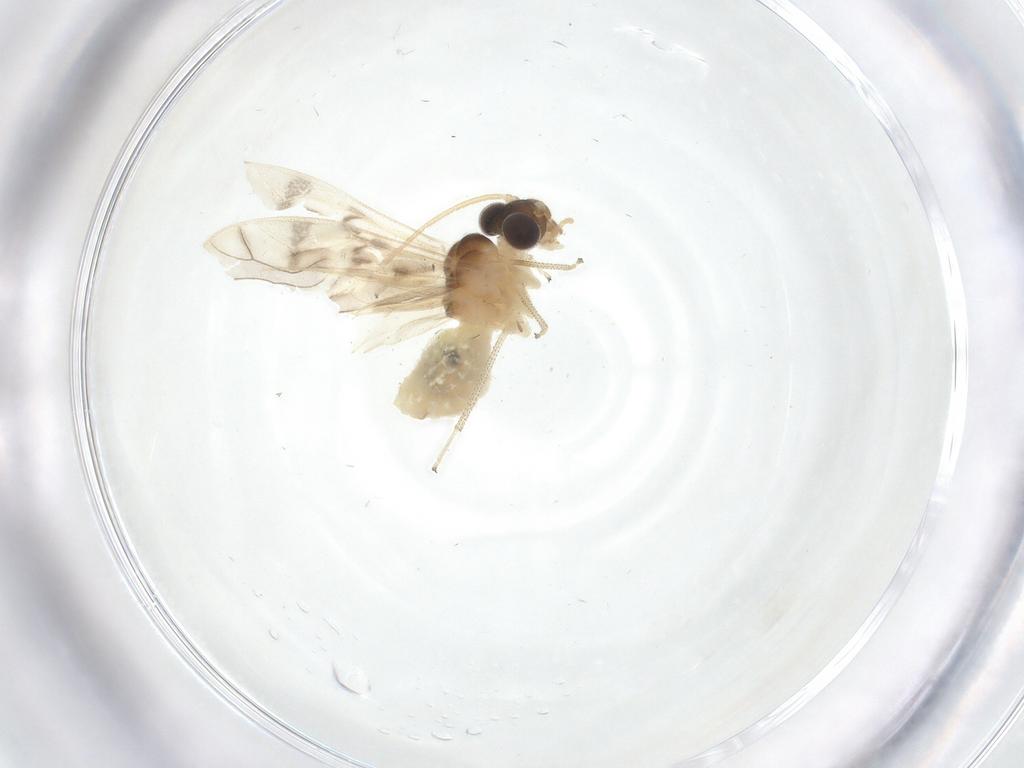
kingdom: Animalia
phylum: Arthropoda
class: Insecta
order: Psocodea
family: Caeciliusidae
